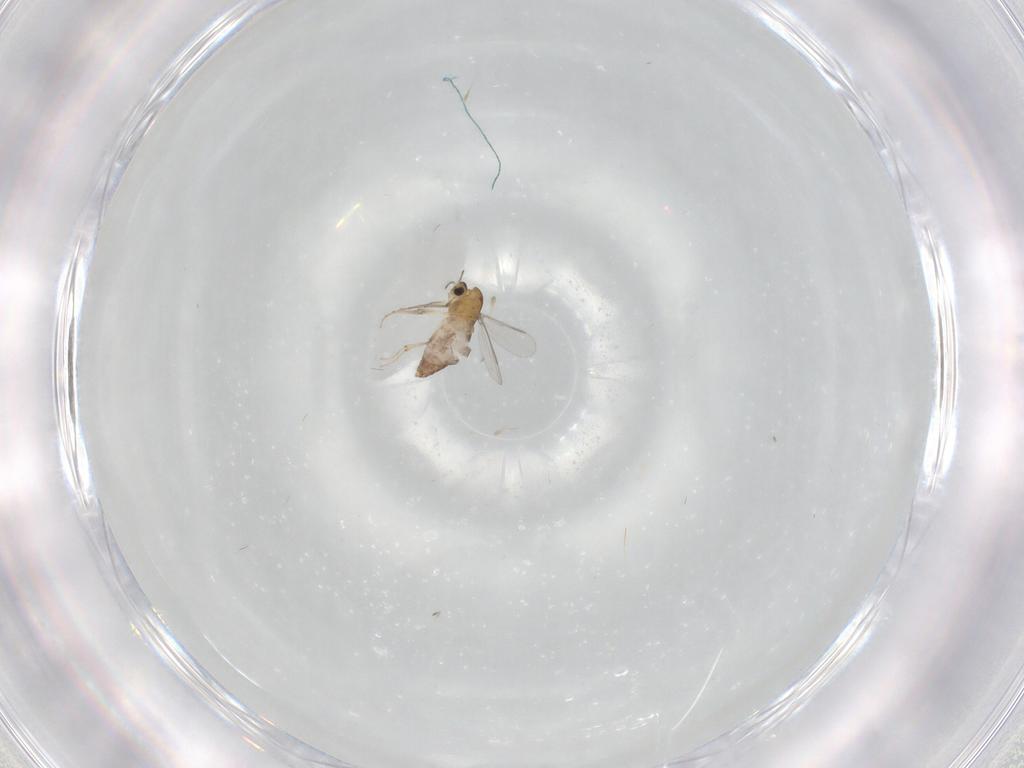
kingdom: Animalia
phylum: Arthropoda
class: Insecta
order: Diptera
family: Chironomidae
